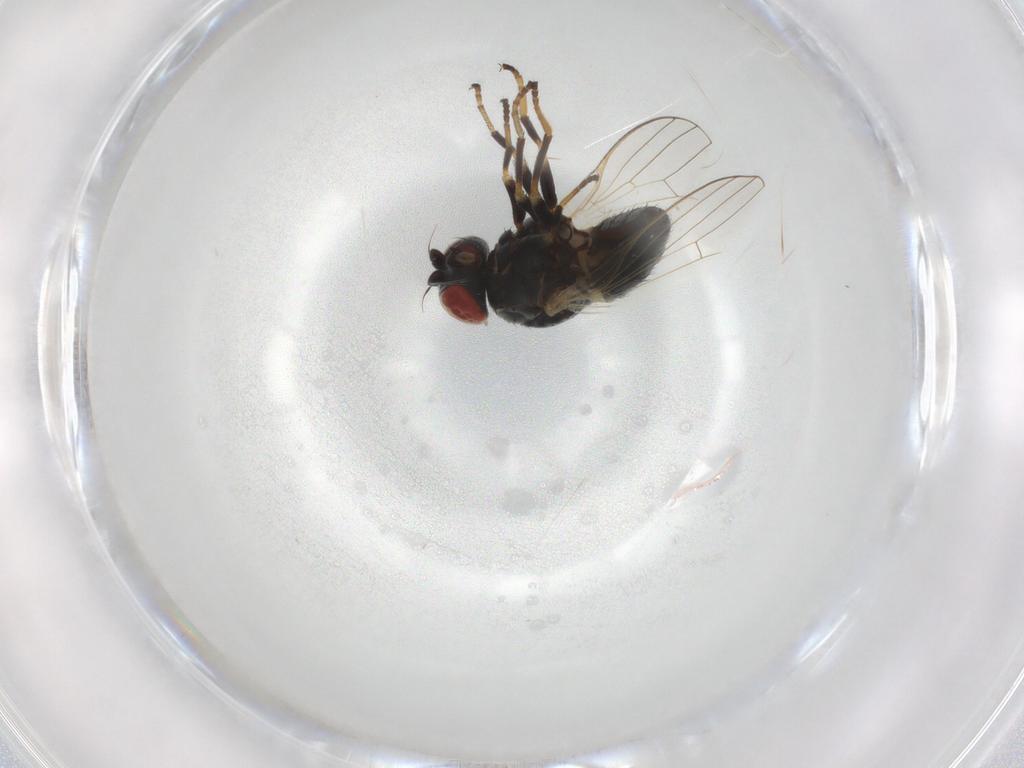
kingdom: Animalia
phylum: Arthropoda
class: Insecta
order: Diptera
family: Chamaemyiidae
